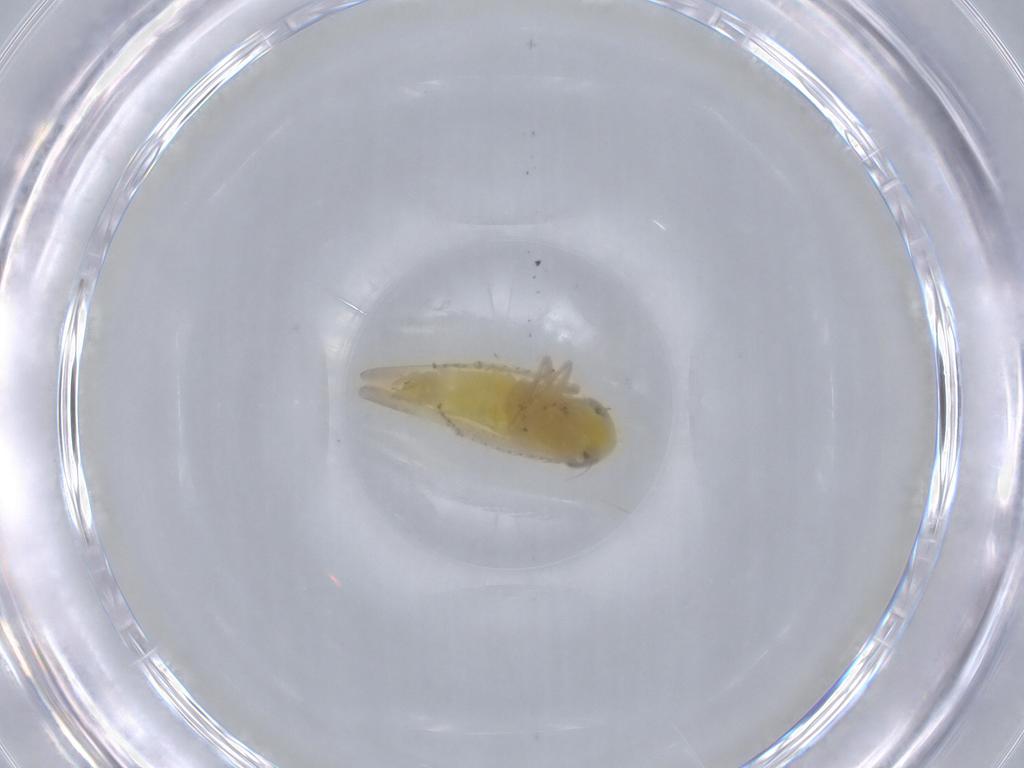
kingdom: Animalia
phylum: Arthropoda
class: Insecta
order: Hemiptera
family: Cicadellidae
